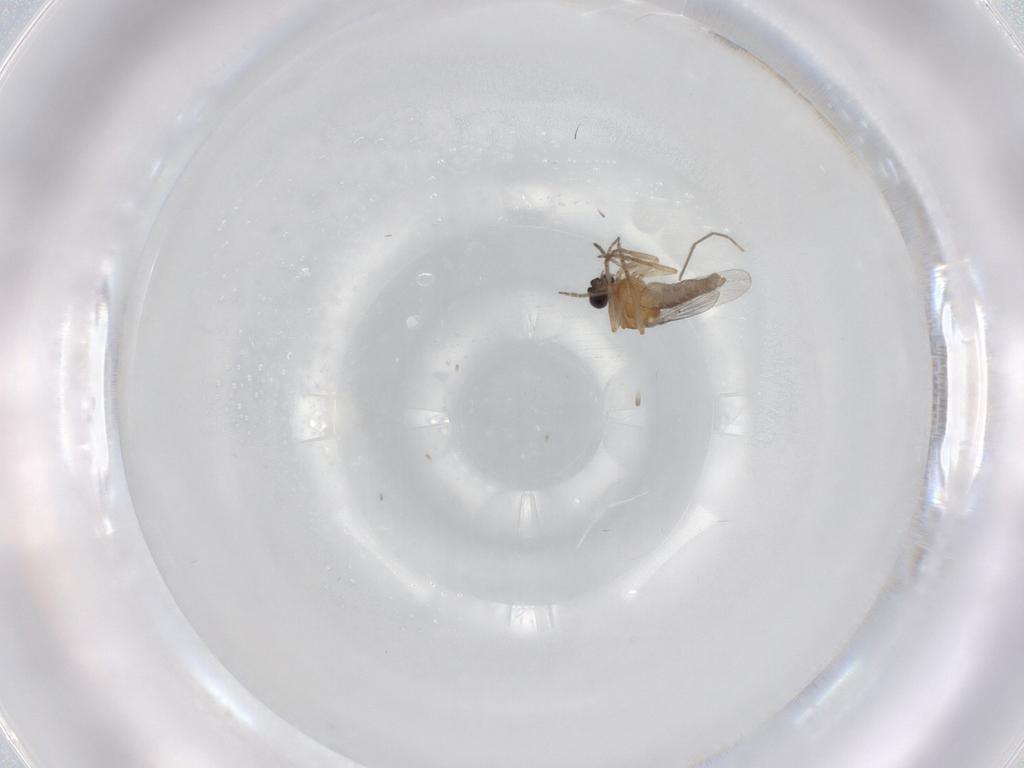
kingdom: Animalia
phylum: Arthropoda
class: Insecta
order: Diptera
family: Ceratopogonidae
